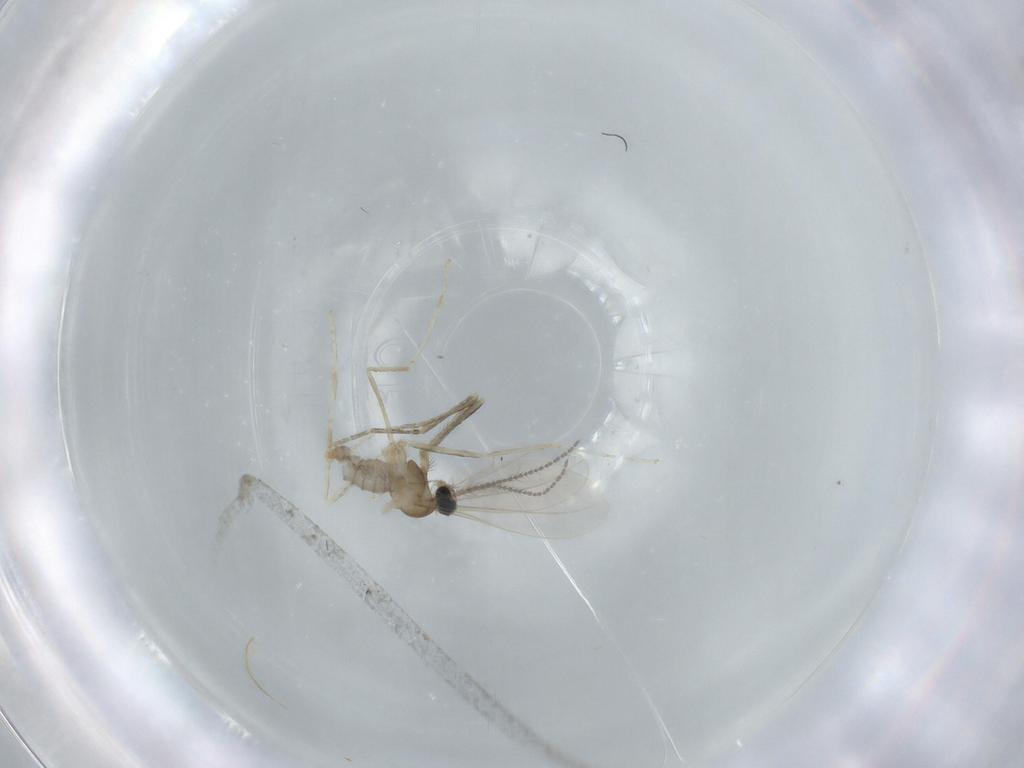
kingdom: Animalia
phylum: Arthropoda
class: Insecta
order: Diptera
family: Cecidomyiidae
